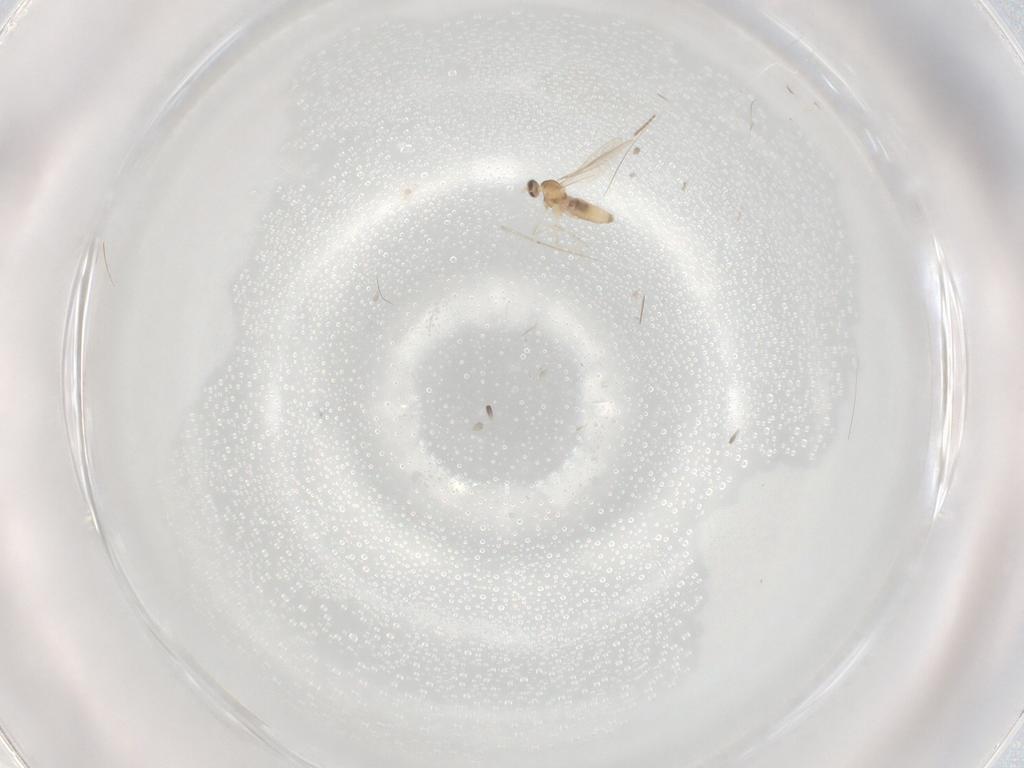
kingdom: Animalia
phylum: Arthropoda
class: Insecta
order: Diptera
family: Cecidomyiidae
